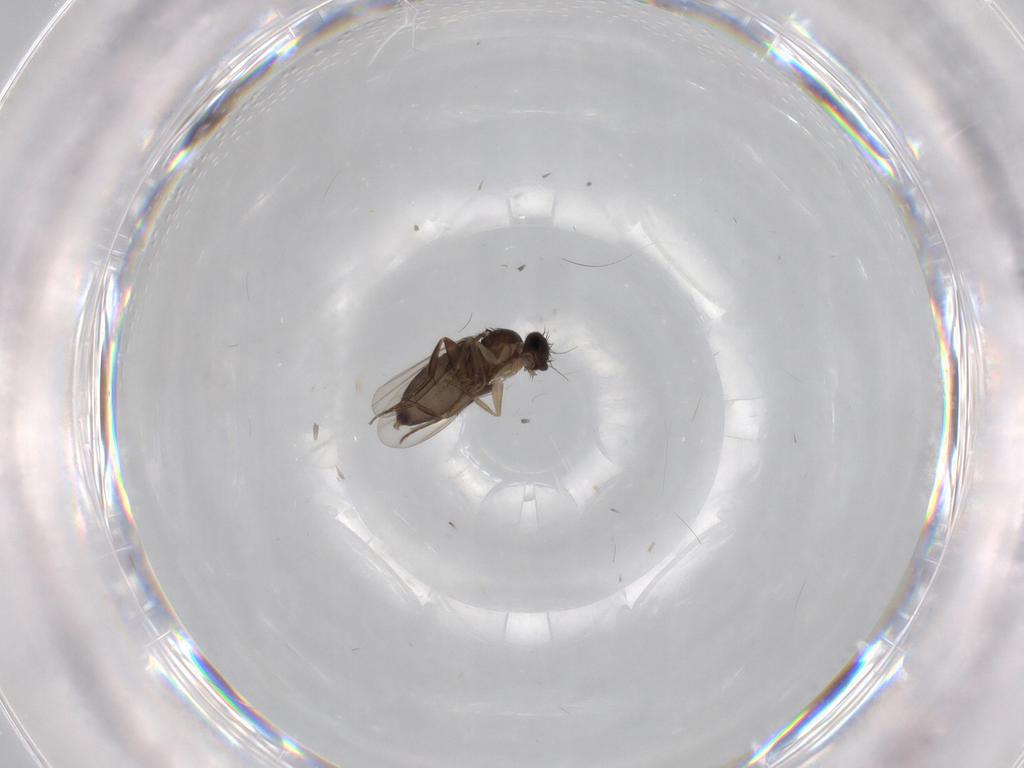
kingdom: Animalia
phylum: Arthropoda
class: Insecta
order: Diptera
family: Phoridae
